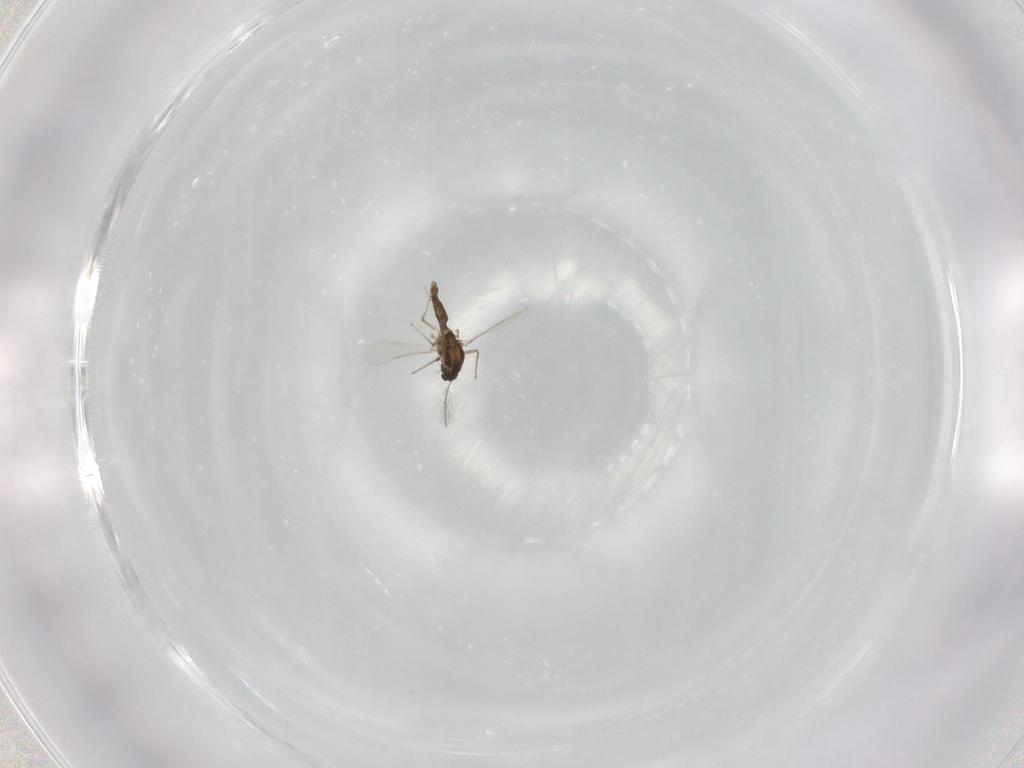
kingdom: Animalia
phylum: Arthropoda
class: Insecta
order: Diptera
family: Chironomidae
